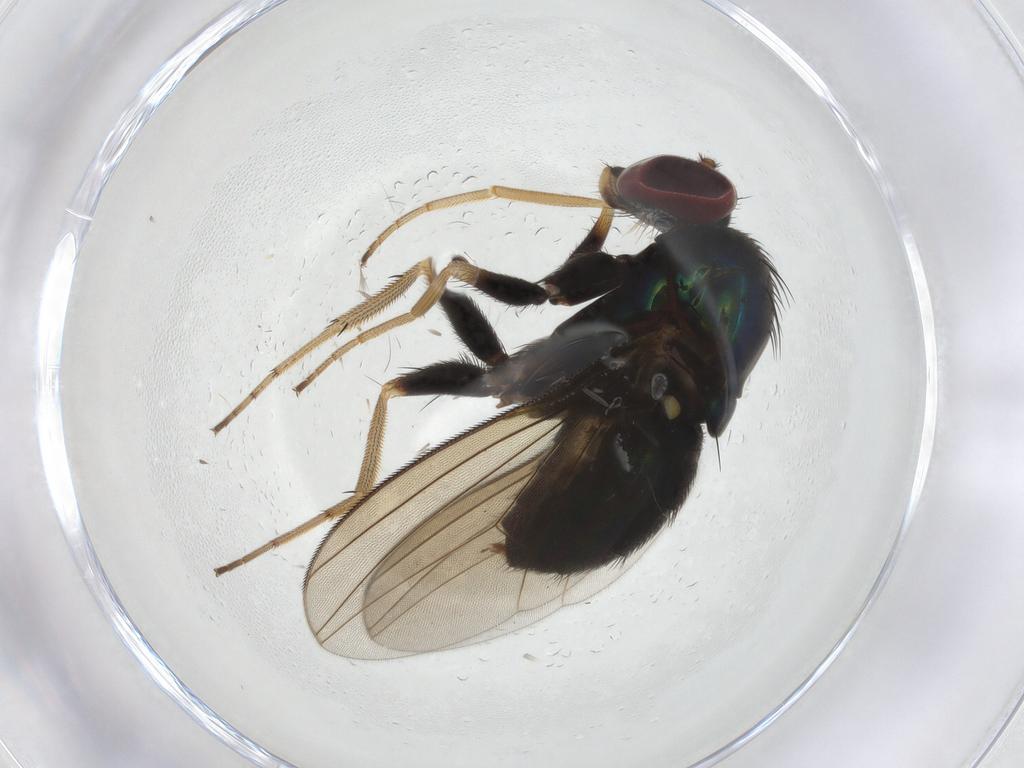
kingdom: Animalia
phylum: Arthropoda
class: Insecta
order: Diptera
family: Dolichopodidae
